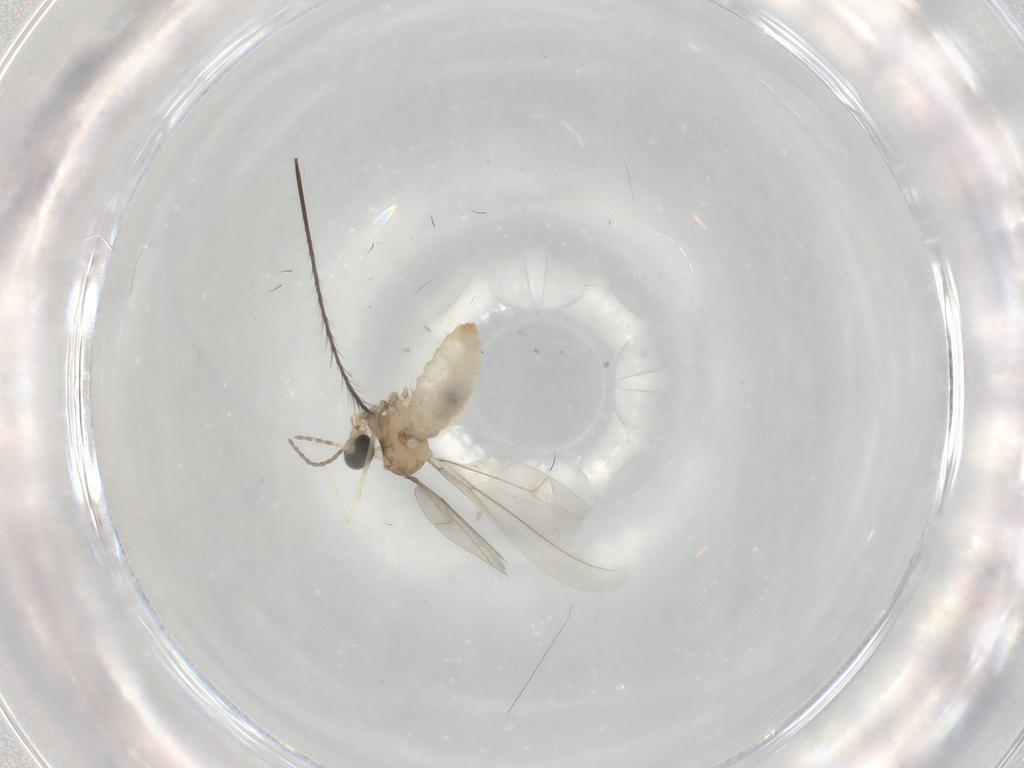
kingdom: Animalia
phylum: Arthropoda
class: Insecta
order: Diptera
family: Cecidomyiidae
